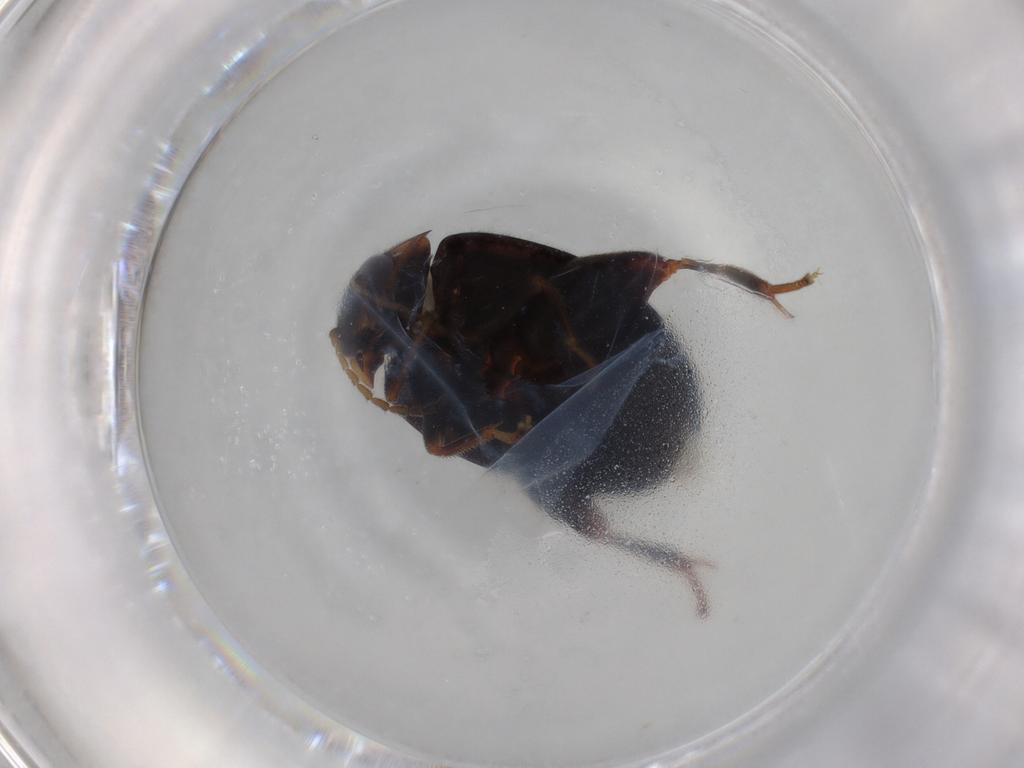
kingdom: Animalia
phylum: Arthropoda
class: Insecta
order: Coleoptera
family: Scirtidae
